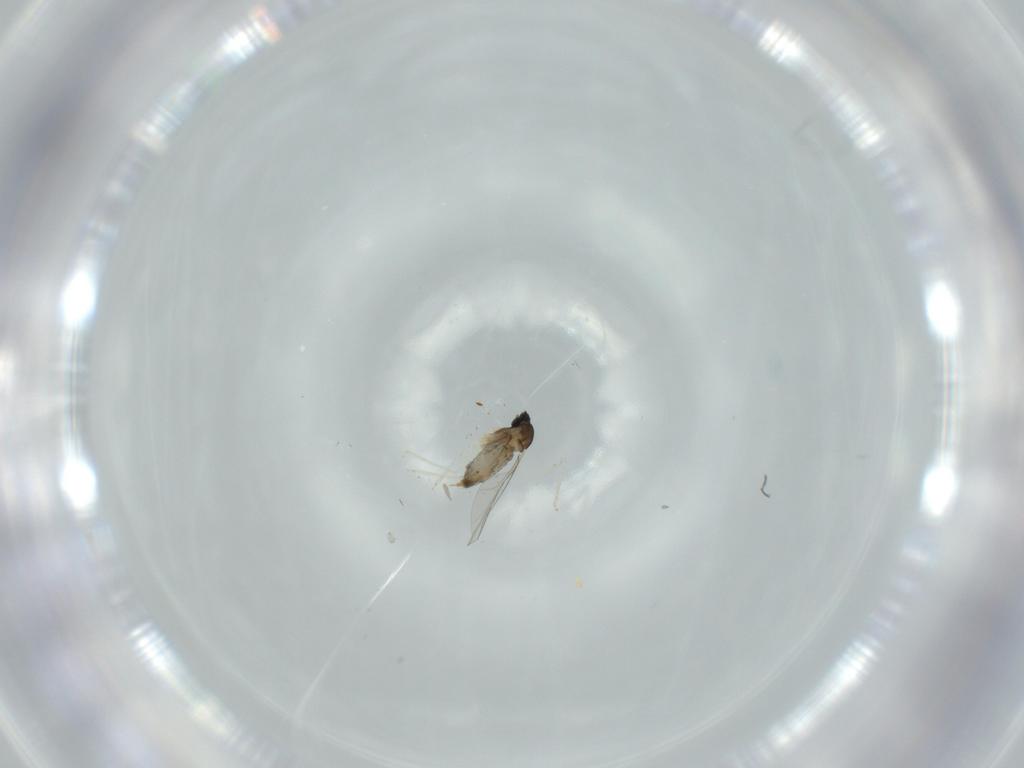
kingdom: Animalia
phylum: Arthropoda
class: Insecta
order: Diptera
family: Cecidomyiidae
